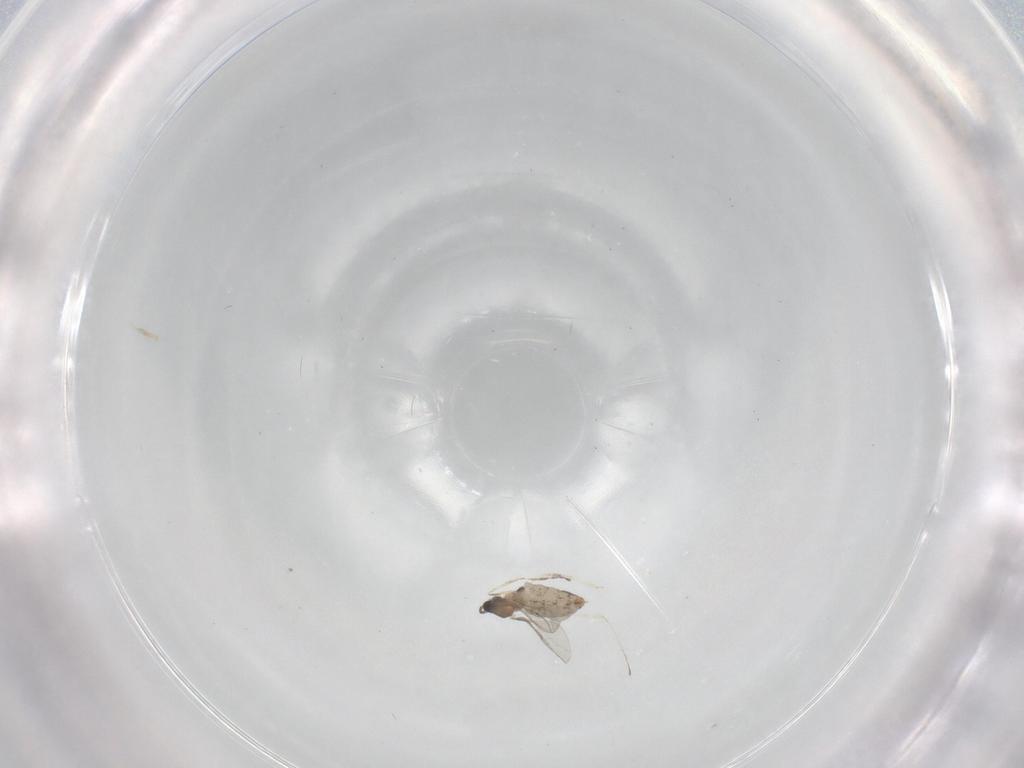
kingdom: Animalia
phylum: Arthropoda
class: Insecta
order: Diptera
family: Cecidomyiidae
